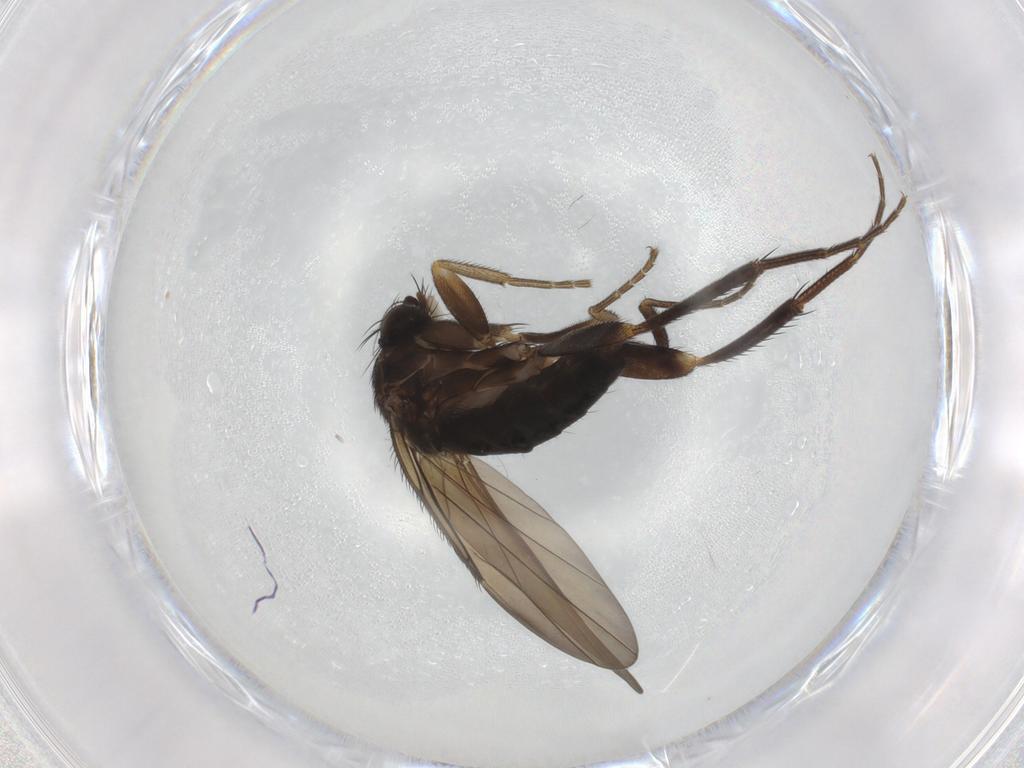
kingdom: Animalia
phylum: Arthropoda
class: Insecta
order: Diptera
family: Phoridae
